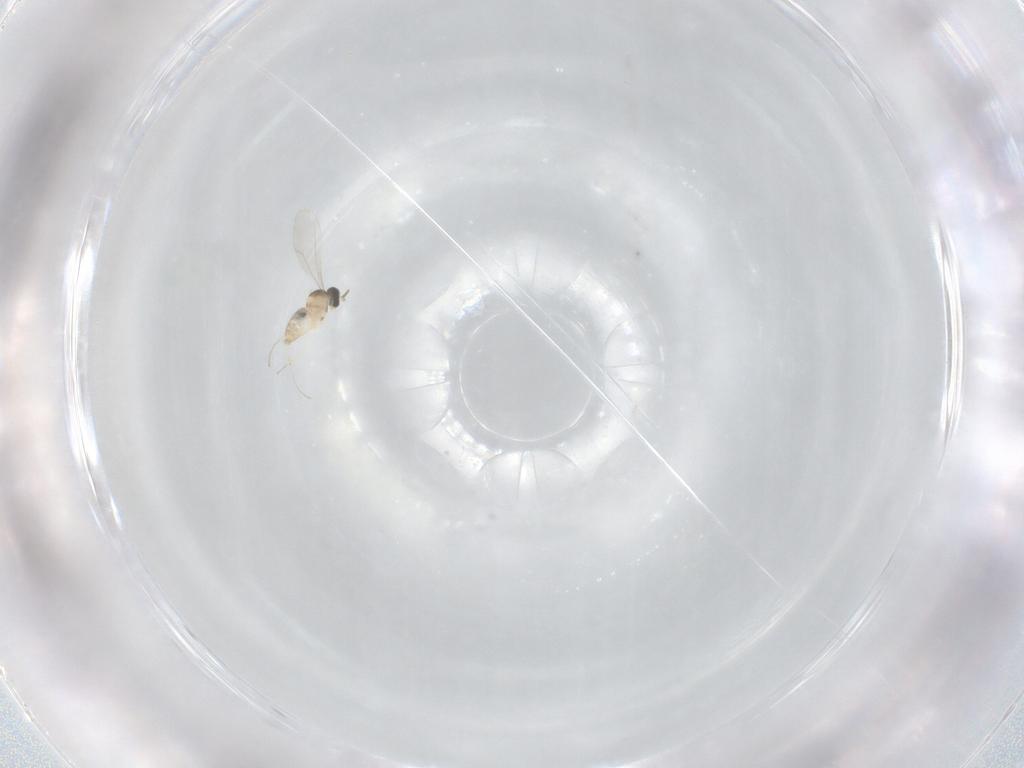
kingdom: Animalia
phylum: Arthropoda
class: Insecta
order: Diptera
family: Cecidomyiidae
